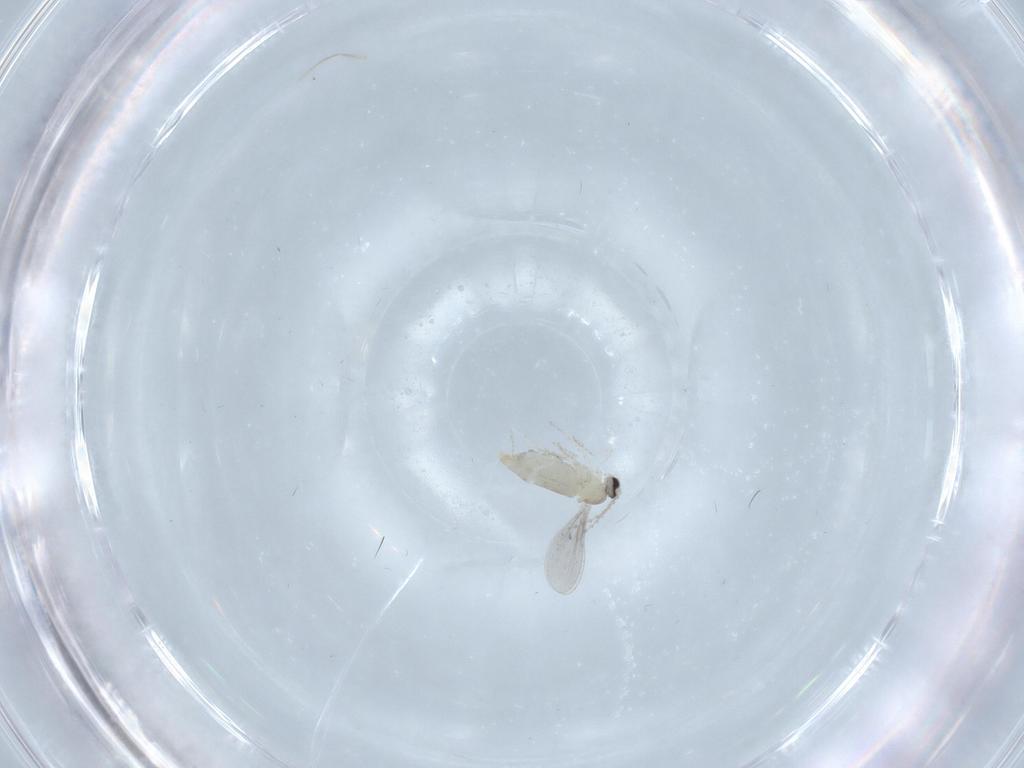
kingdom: Animalia
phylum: Arthropoda
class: Insecta
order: Diptera
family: Cecidomyiidae
